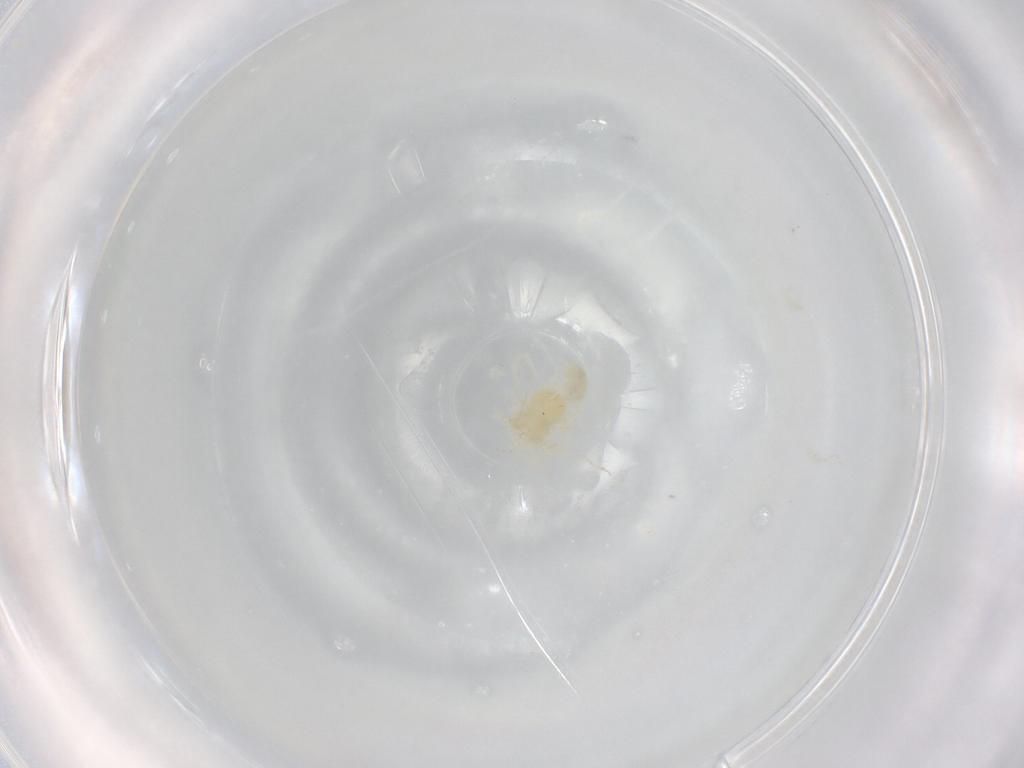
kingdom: Animalia
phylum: Arthropoda
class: Arachnida
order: Trombidiformes
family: Anystidae
